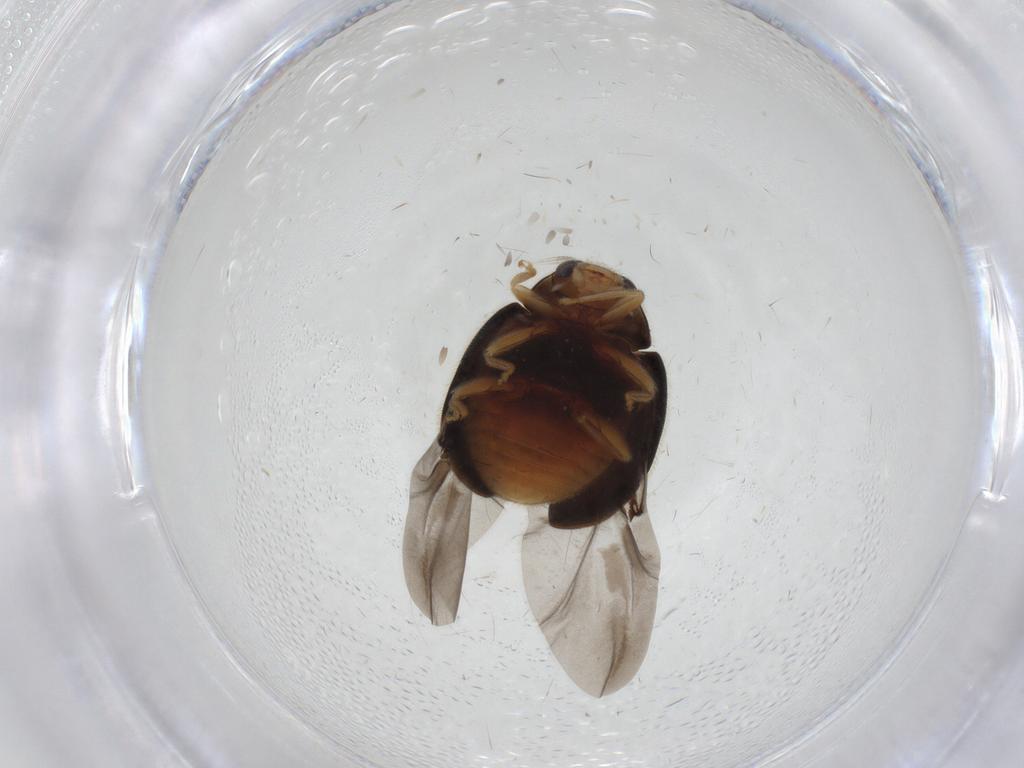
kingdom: Animalia
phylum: Arthropoda
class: Insecta
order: Coleoptera
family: Coccinellidae
